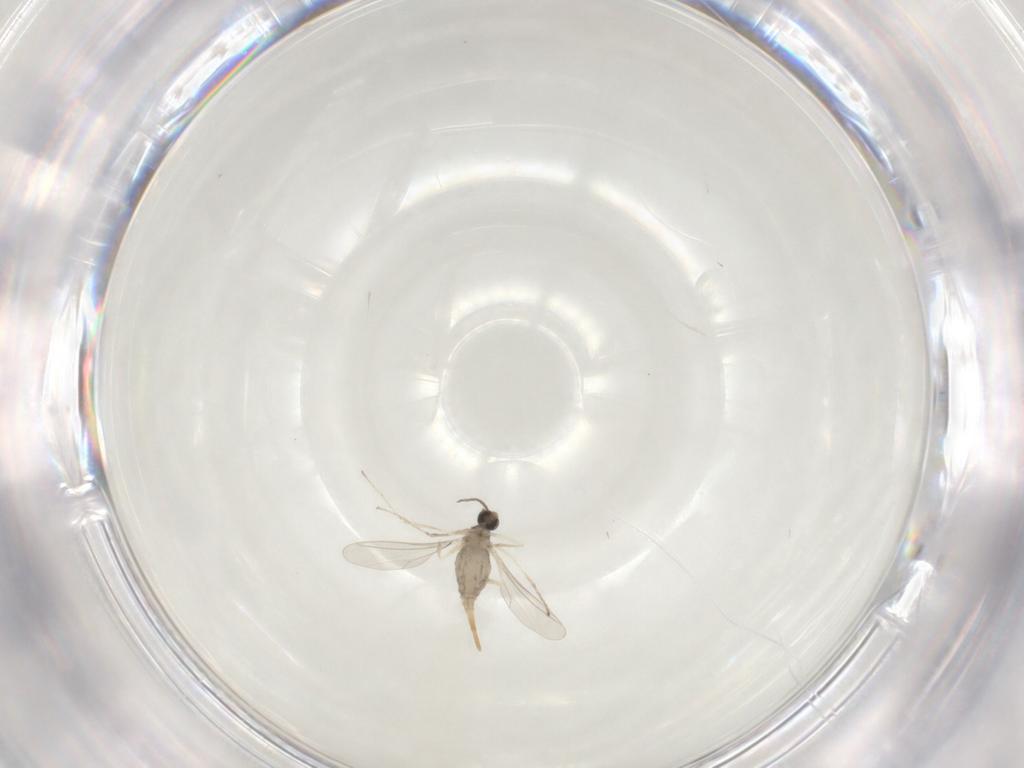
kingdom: Animalia
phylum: Arthropoda
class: Insecta
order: Diptera
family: Cecidomyiidae
